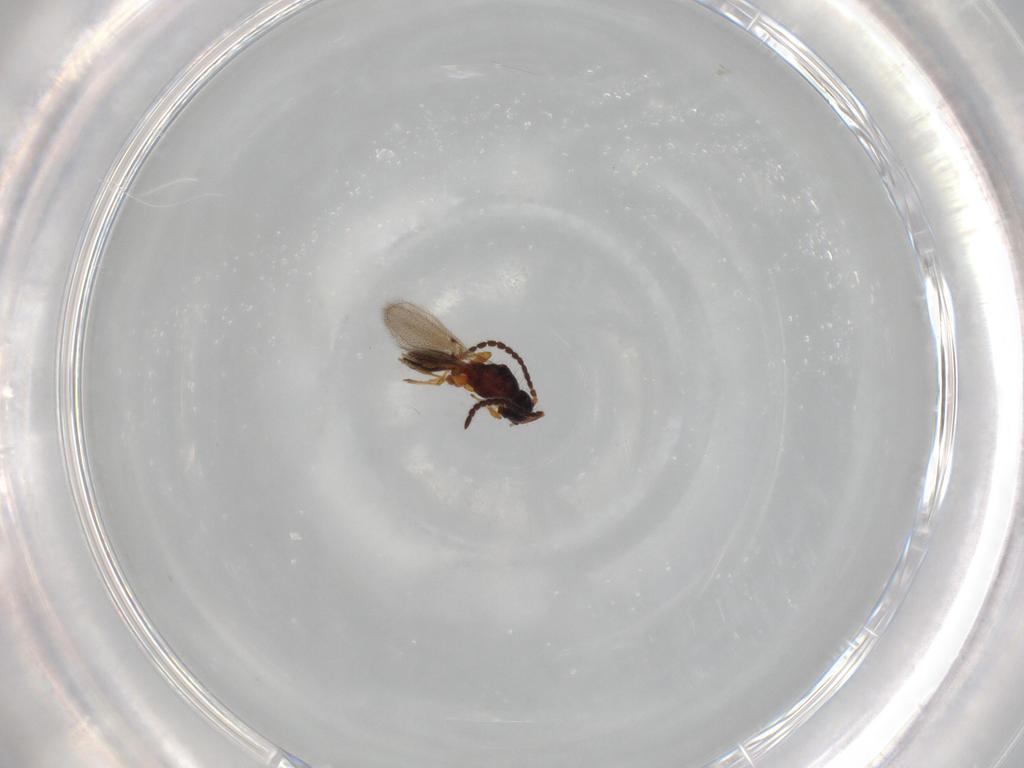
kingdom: Animalia
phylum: Arthropoda
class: Insecta
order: Hymenoptera
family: Diapriidae
